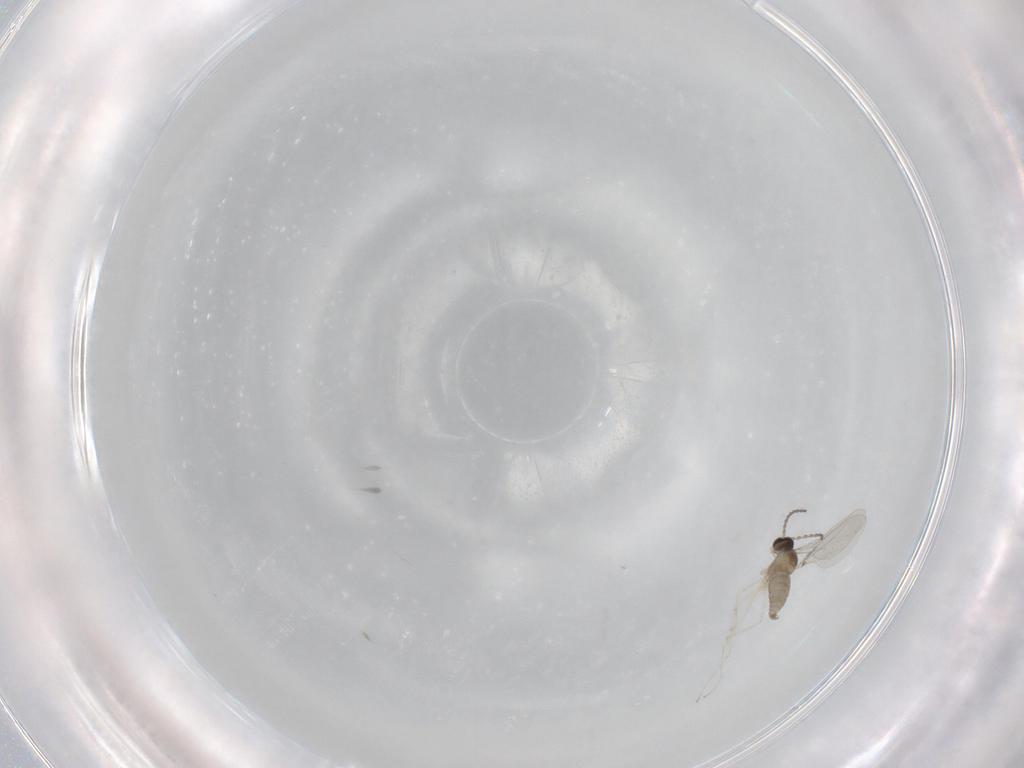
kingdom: Animalia
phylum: Arthropoda
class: Insecta
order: Diptera
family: Cecidomyiidae
